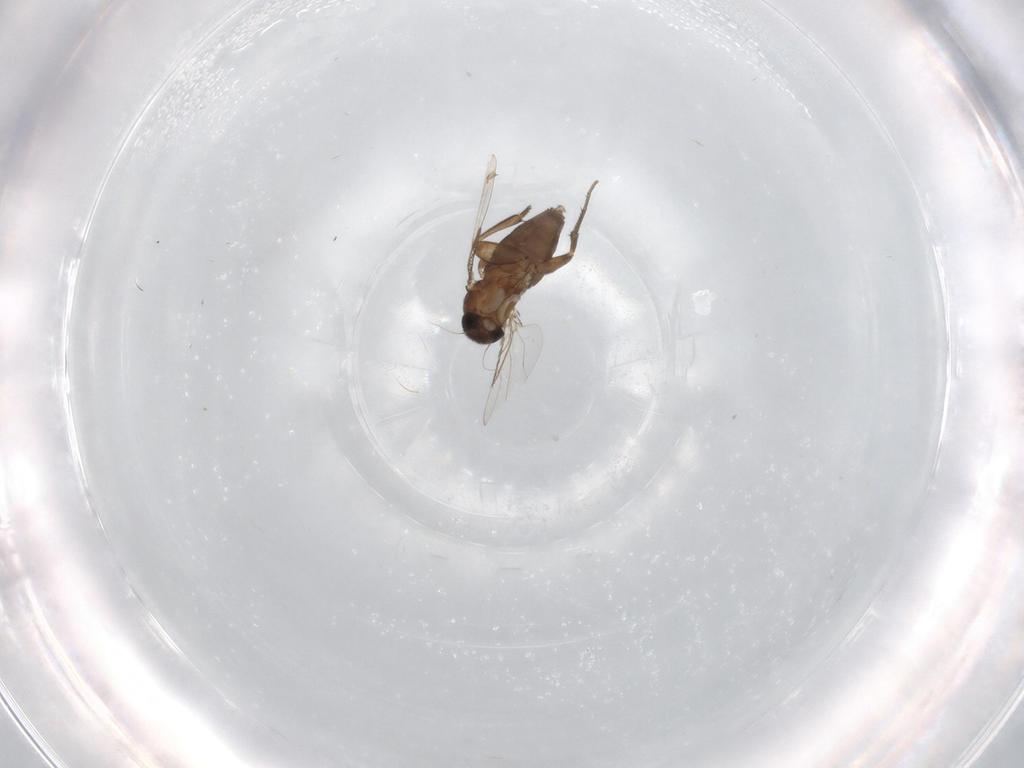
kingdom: Animalia
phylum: Arthropoda
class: Insecta
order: Diptera
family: Phoridae
